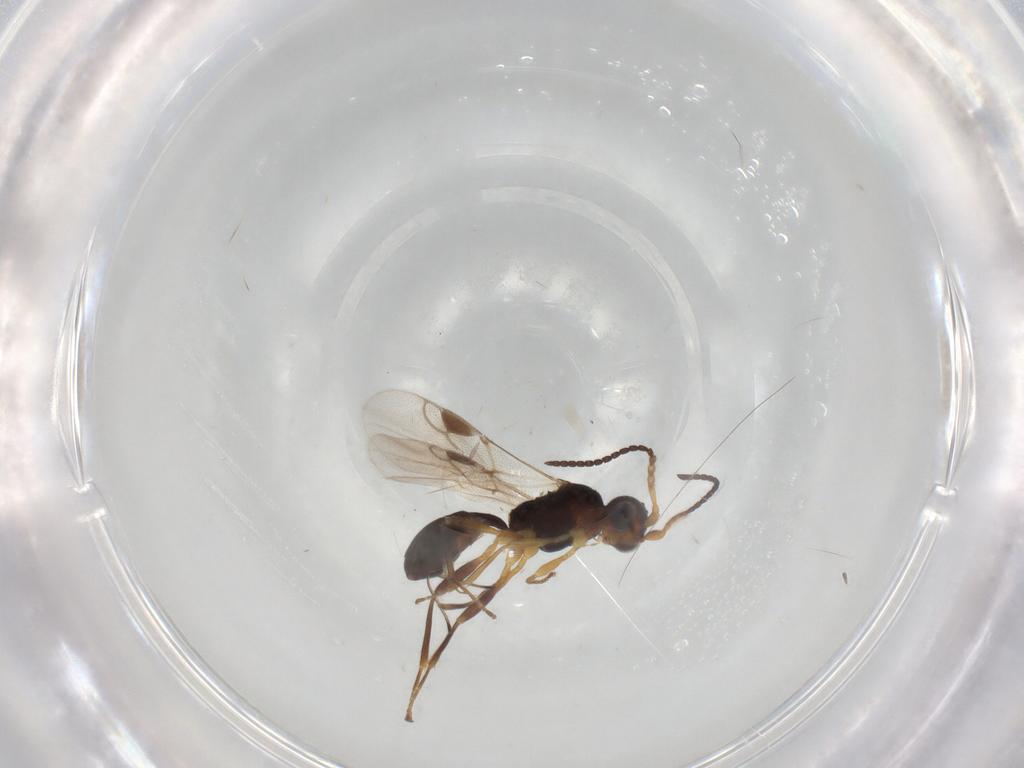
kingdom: Animalia
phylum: Arthropoda
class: Insecta
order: Hymenoptera
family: Braconidae
